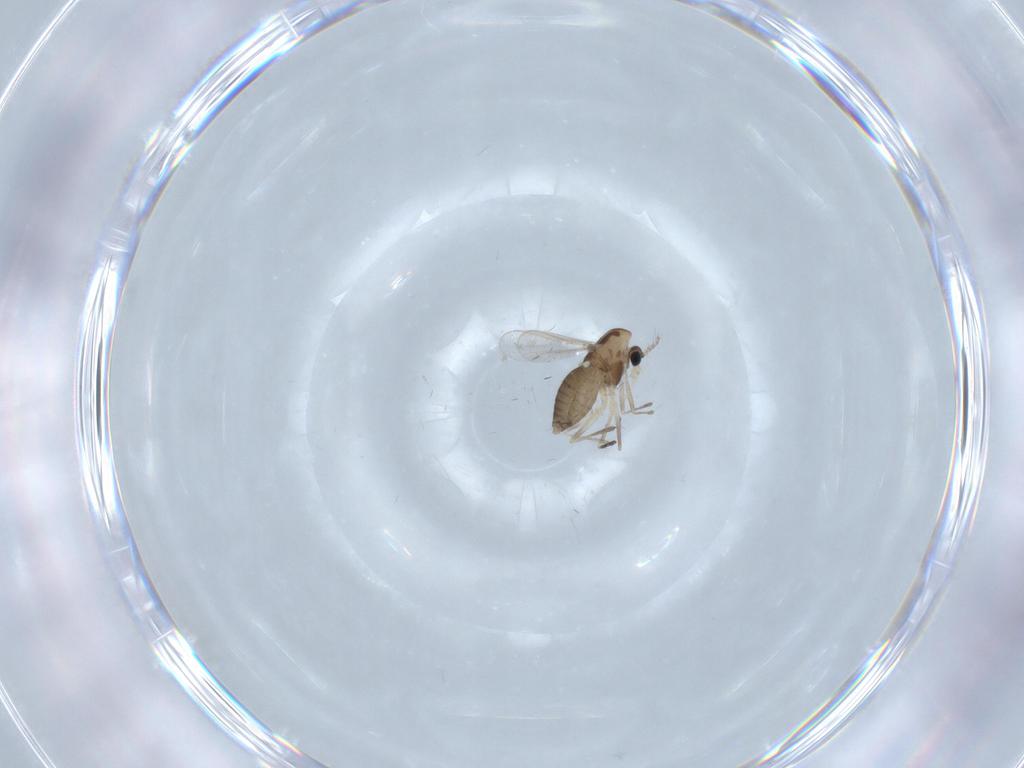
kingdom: Animalia
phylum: Arthropoda
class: Insecta
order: Diptera
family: Chironomidae
